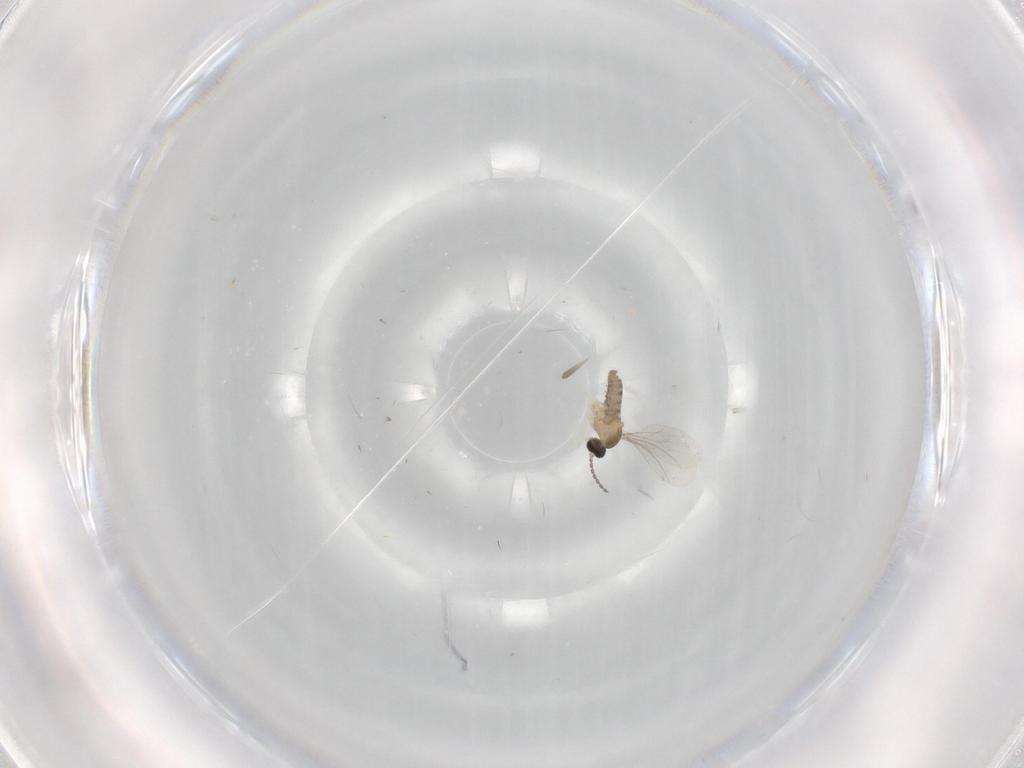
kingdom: Animalia
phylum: Arthropoda
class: Insecta
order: Diptera
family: Cecidomyiidae
